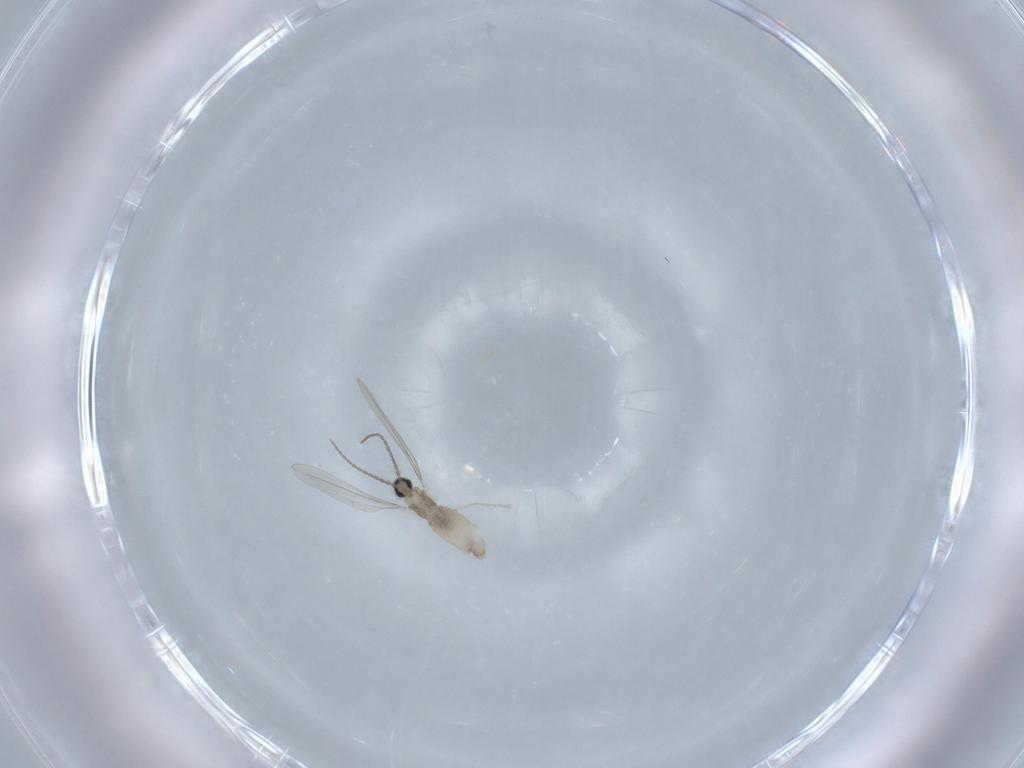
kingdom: Animalia
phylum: Arthropoda
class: Insecta
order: Diptera
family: Cecidomyiidae
